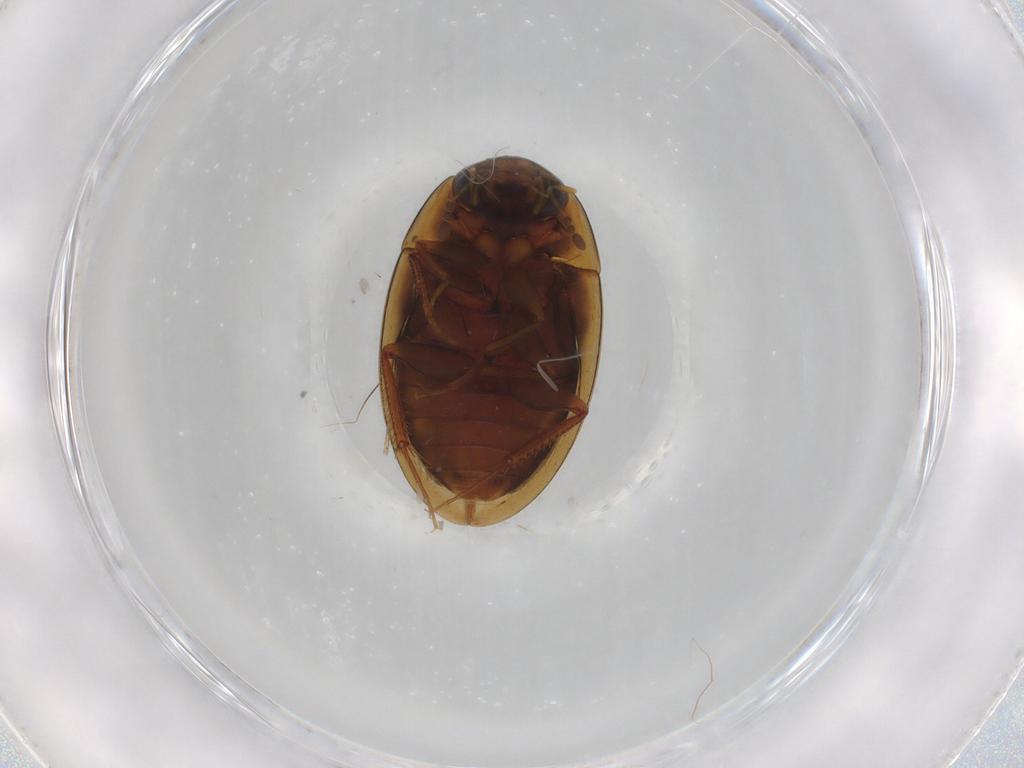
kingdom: Animalia
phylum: Arthropoda
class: Insecta
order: Coleoptera
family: Hydrophilidae
